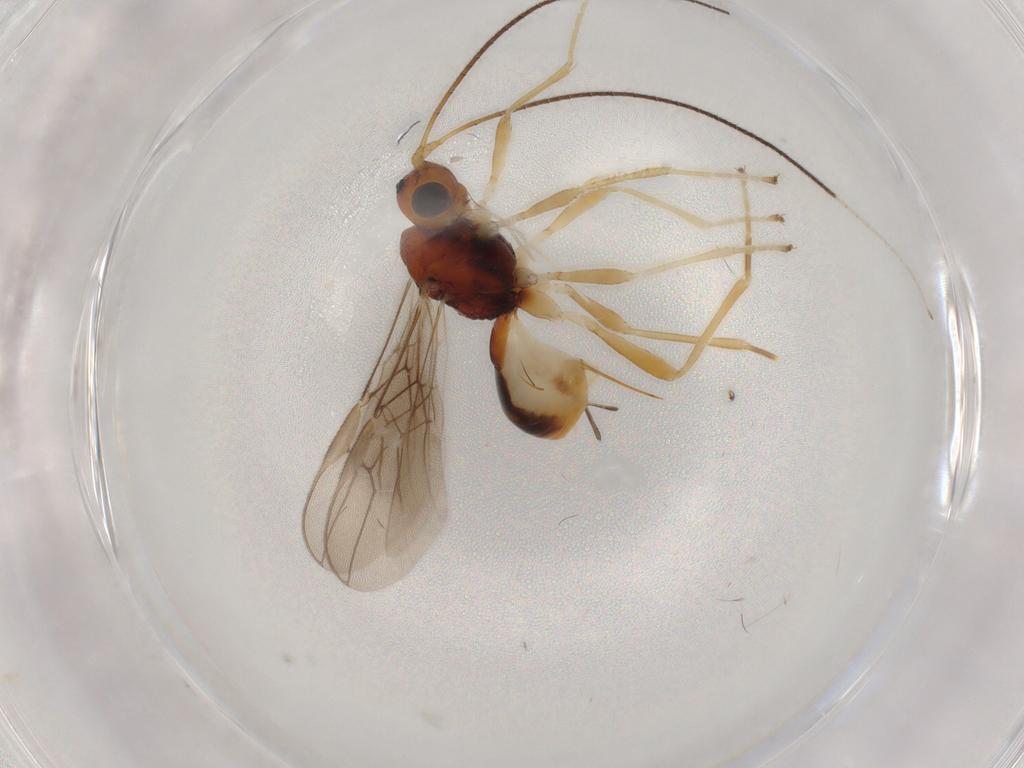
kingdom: Animalia
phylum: Arthropoda
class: Insecta
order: Hymenoptera
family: Braconidae
